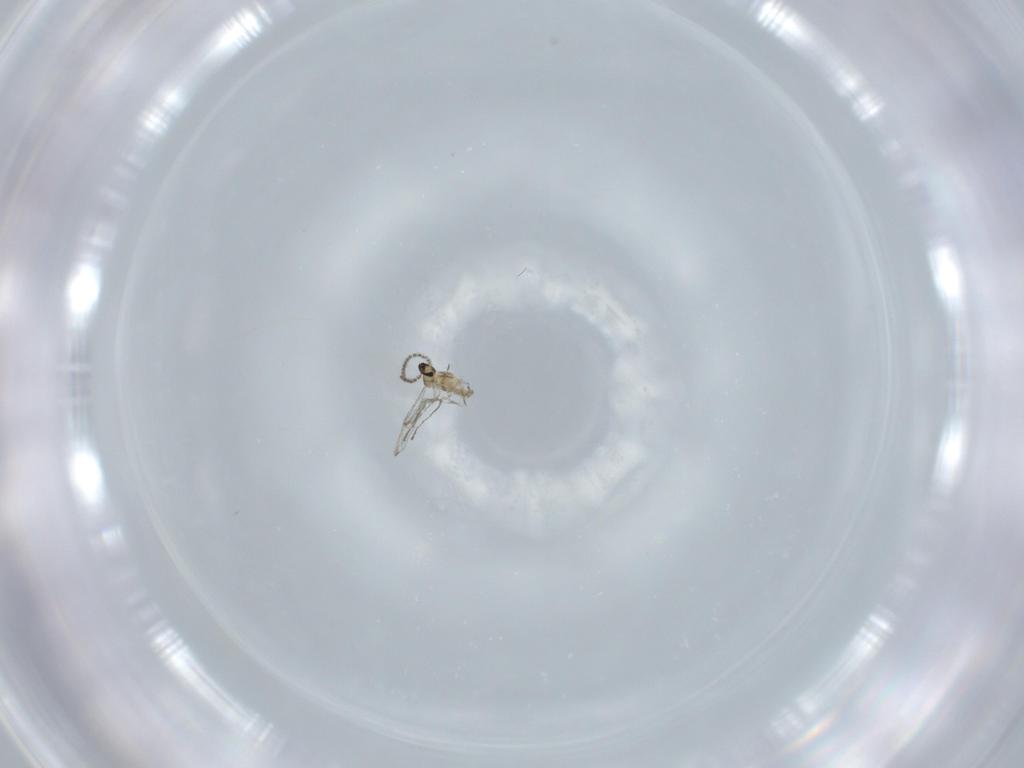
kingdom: Animalia
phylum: Arthropoda
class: Insecta
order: Diptera
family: Cecidomyiidae
